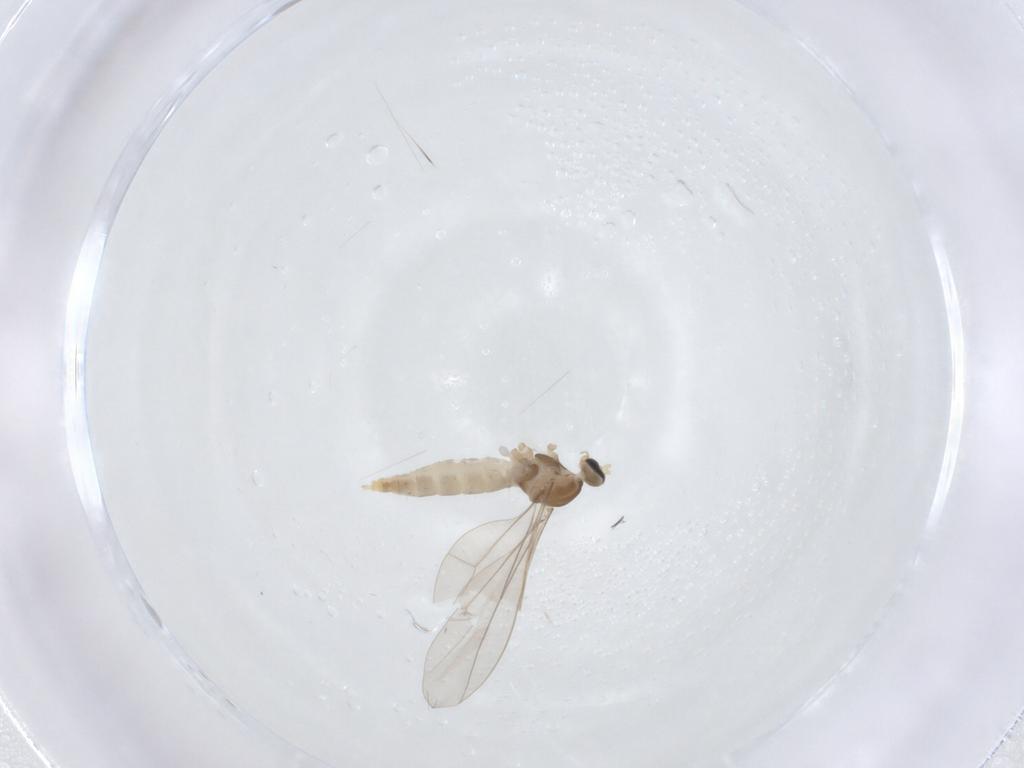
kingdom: Animalia
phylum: Arthropoda
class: Insecta
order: Diptera
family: Cecidomyiidae
